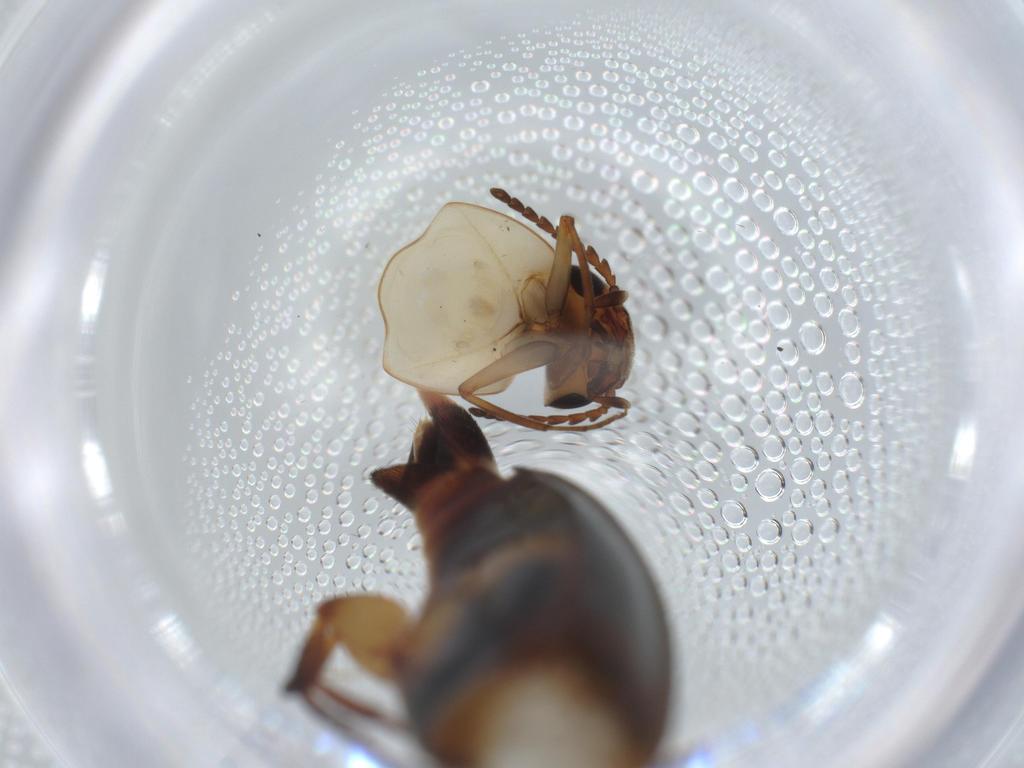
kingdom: Animalia
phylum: Arthropoda
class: Insecta
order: Coleoptera
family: Mordellidae
